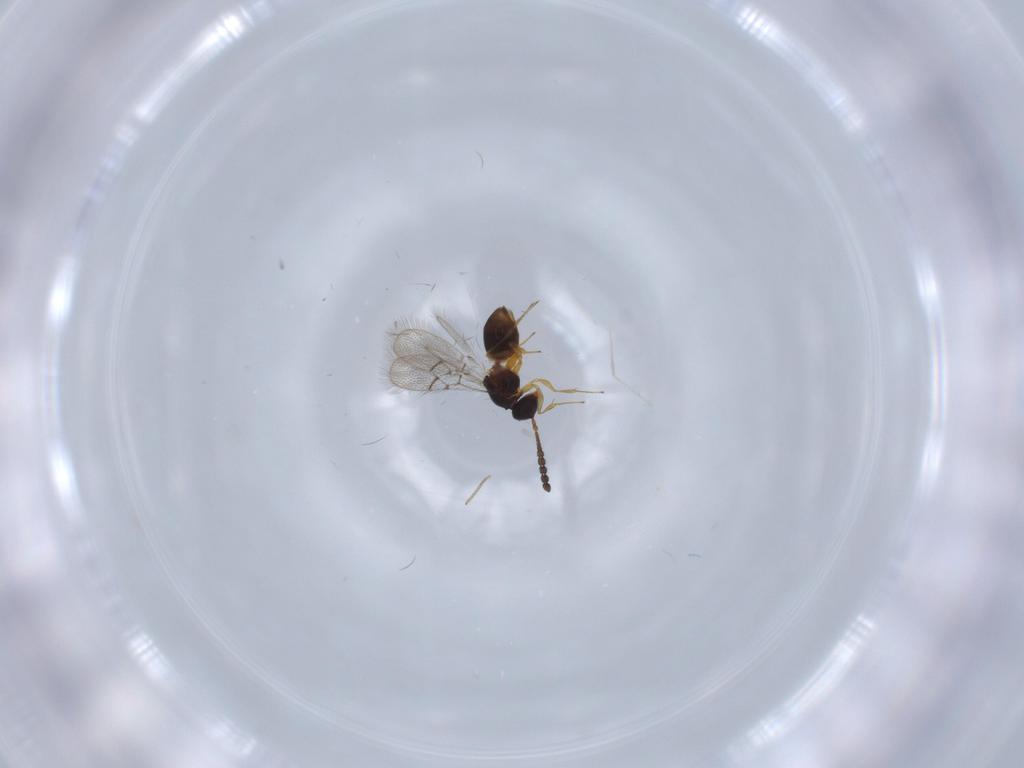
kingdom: Animalia
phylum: Arthropoda
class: Insecta
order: Hymenoptera
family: Figitidae
